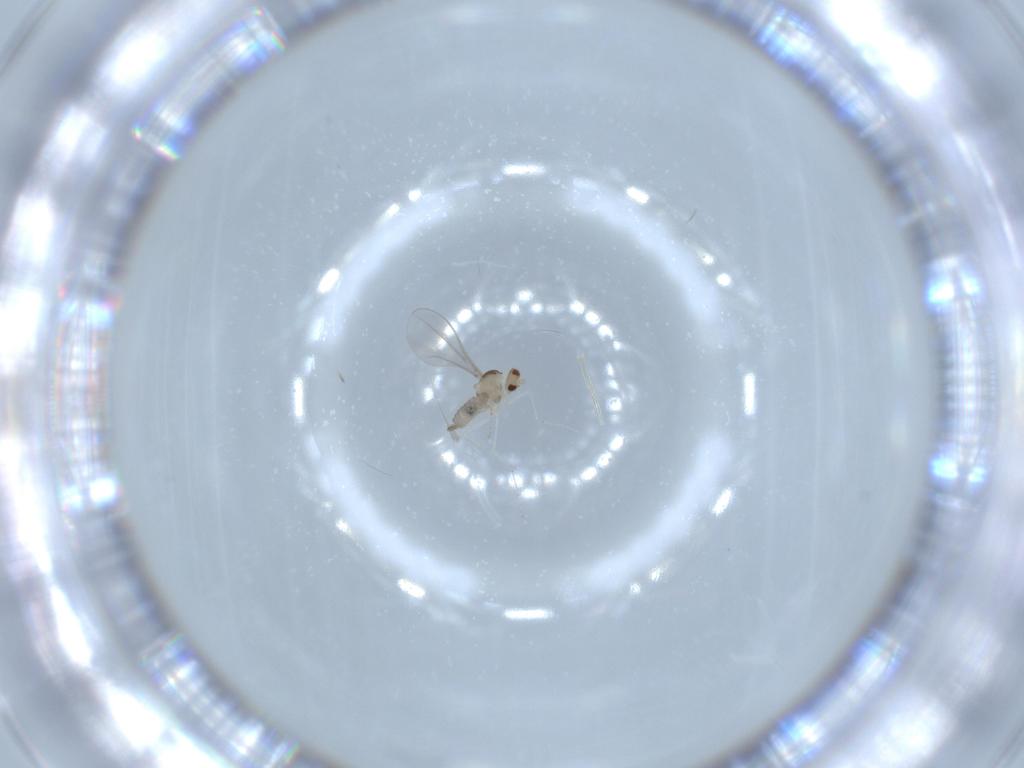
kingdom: Animalia
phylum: Arthropoda
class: Insecta
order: Diptera
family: Cecidomyiidae
